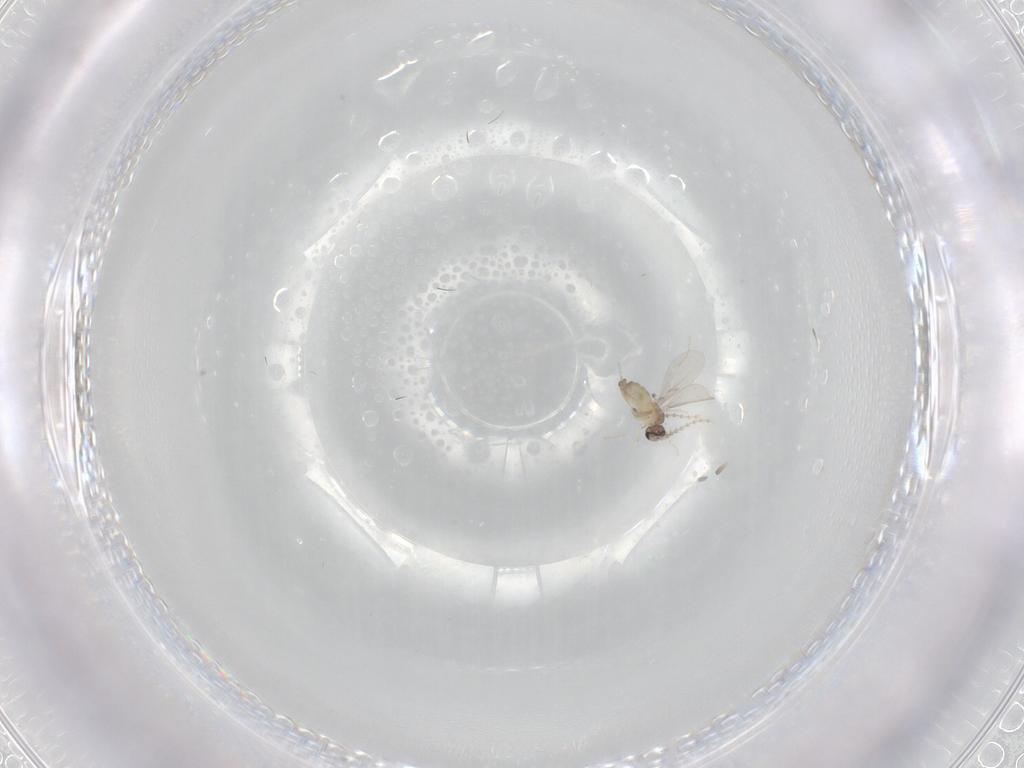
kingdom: Animalia
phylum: Arthropoda
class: Insecta
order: Diptera
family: Cecidomyiidae
